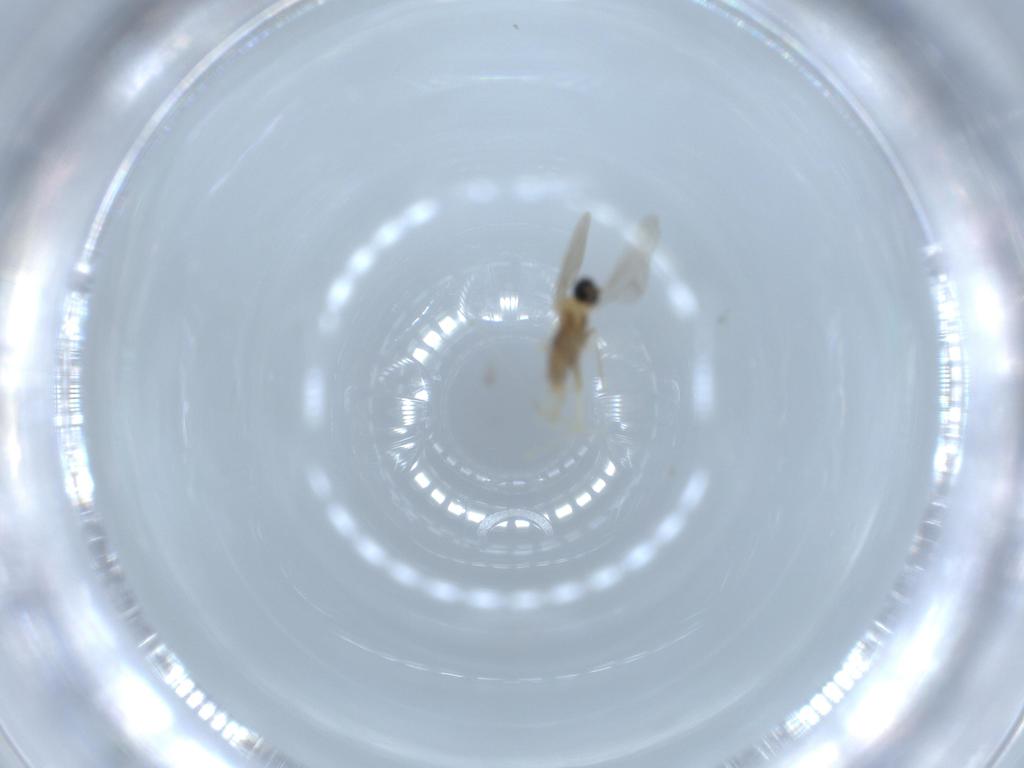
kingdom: Animalia
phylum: Arthropoda
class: Insecta
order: Diptera
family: Cecidomyiidae
